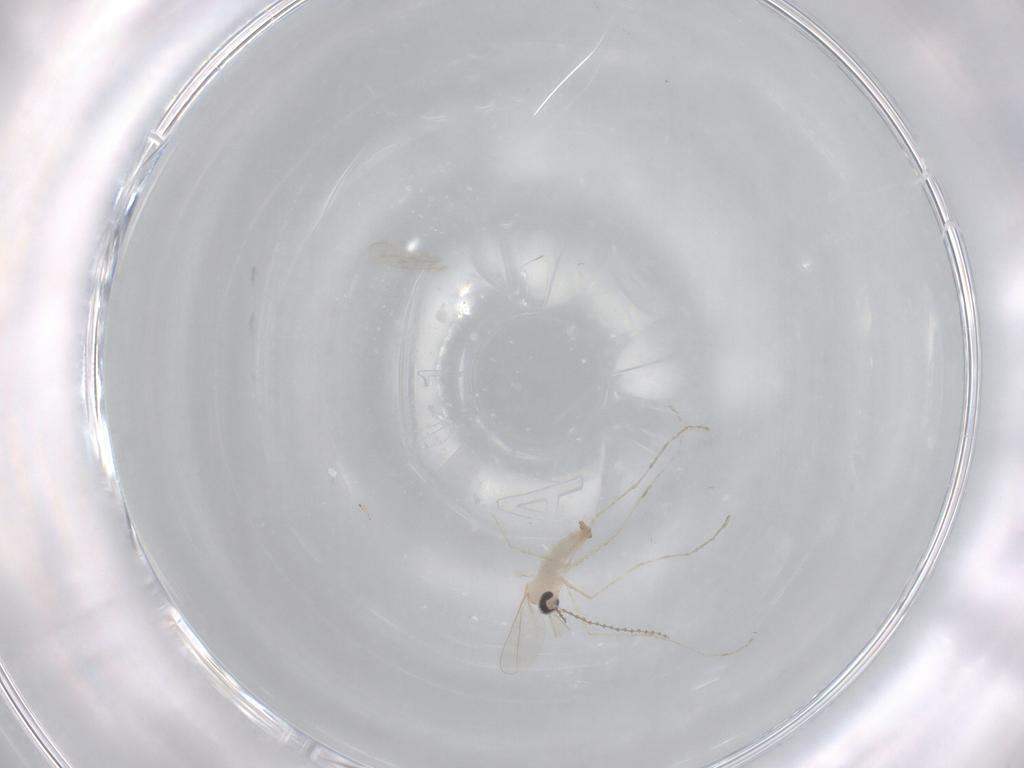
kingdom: Animalia
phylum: Arthropoda
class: Insecta
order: Diptera
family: Cecidomyiidae
